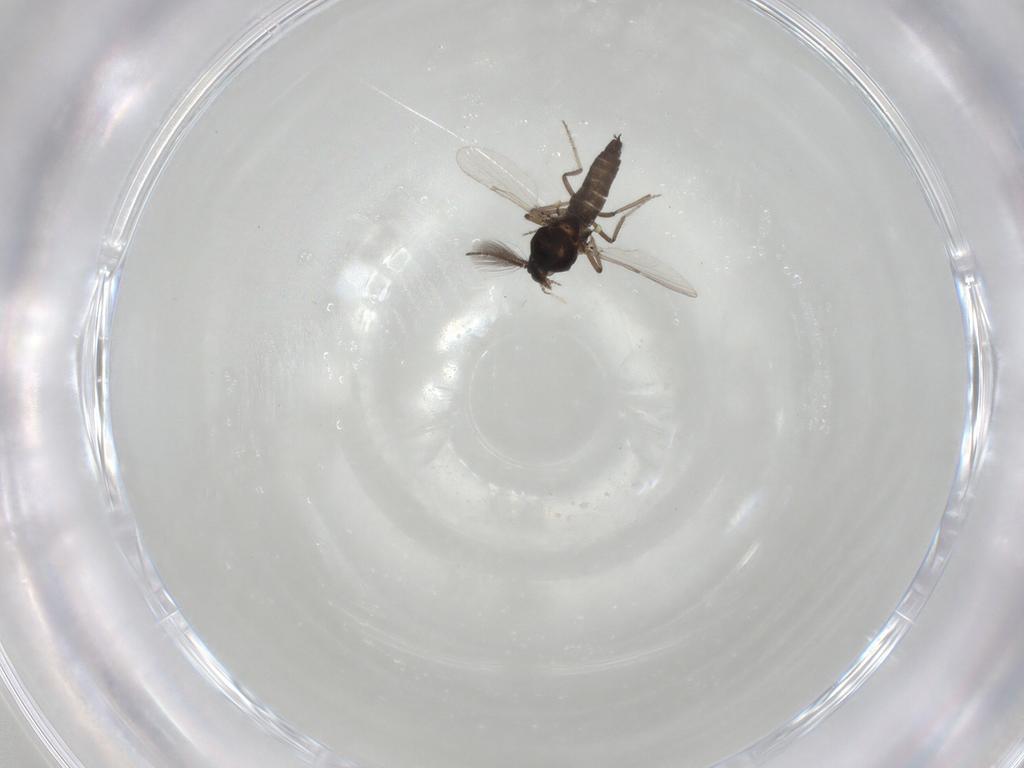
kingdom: Animalia
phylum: Arthropoda
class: Insecta
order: Diptera
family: Ceratopogonidae
